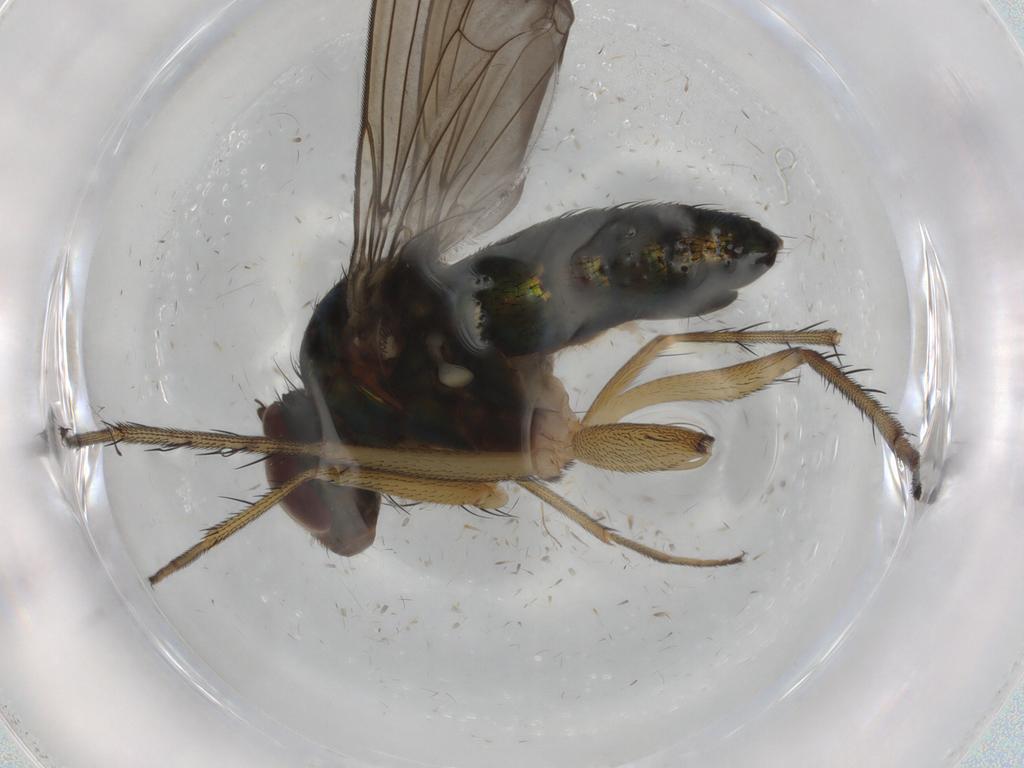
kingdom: Animalia
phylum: Arthropoda
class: Insecta
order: Diptera
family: Dolichopodidae
